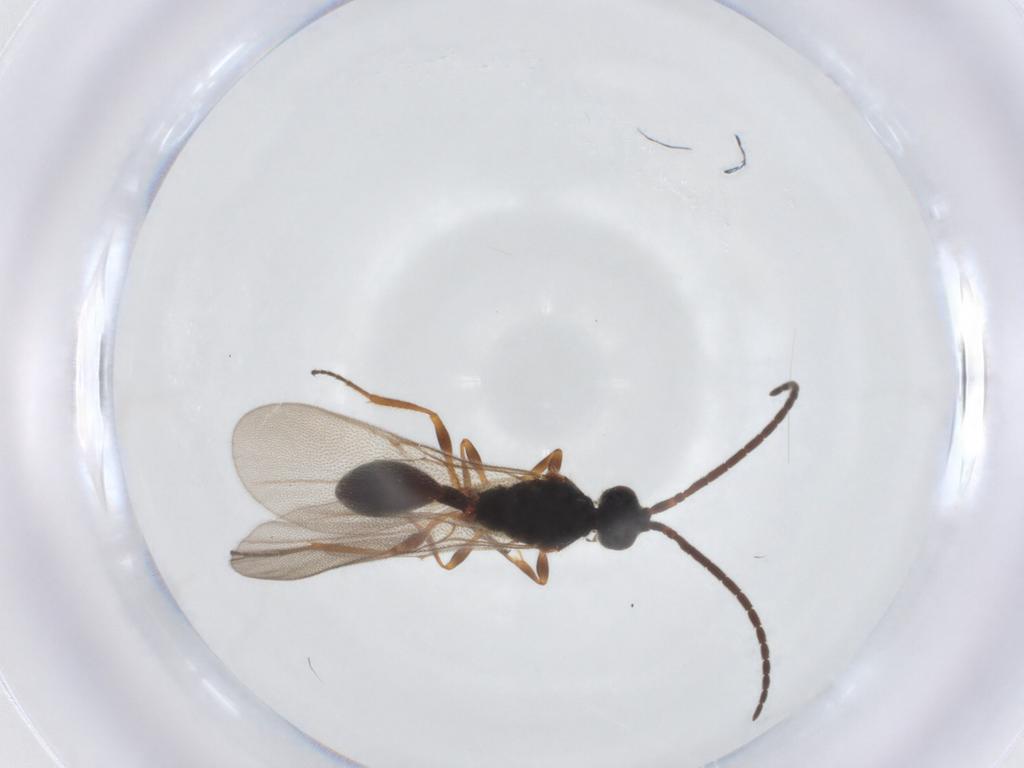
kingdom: Animalia
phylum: Arthropoda
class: Insecta
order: Hymenoptera
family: Diapriidae
